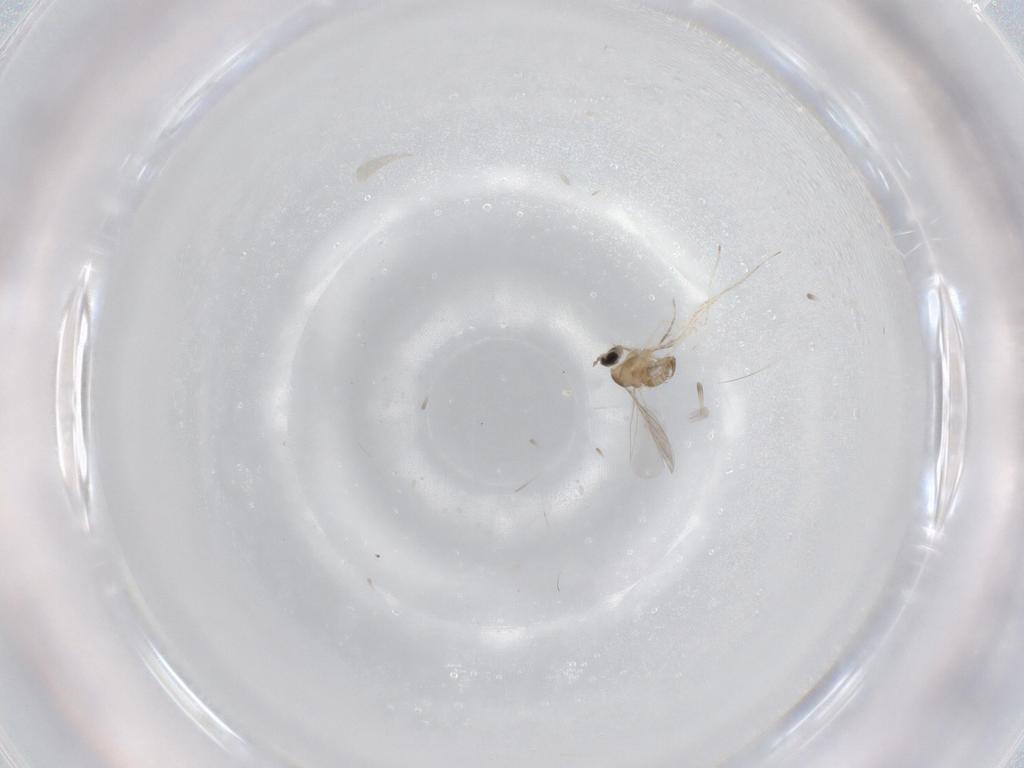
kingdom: Animalia
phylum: Arthropoda
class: Insecta
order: Diptera
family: Cecidomyiidae
